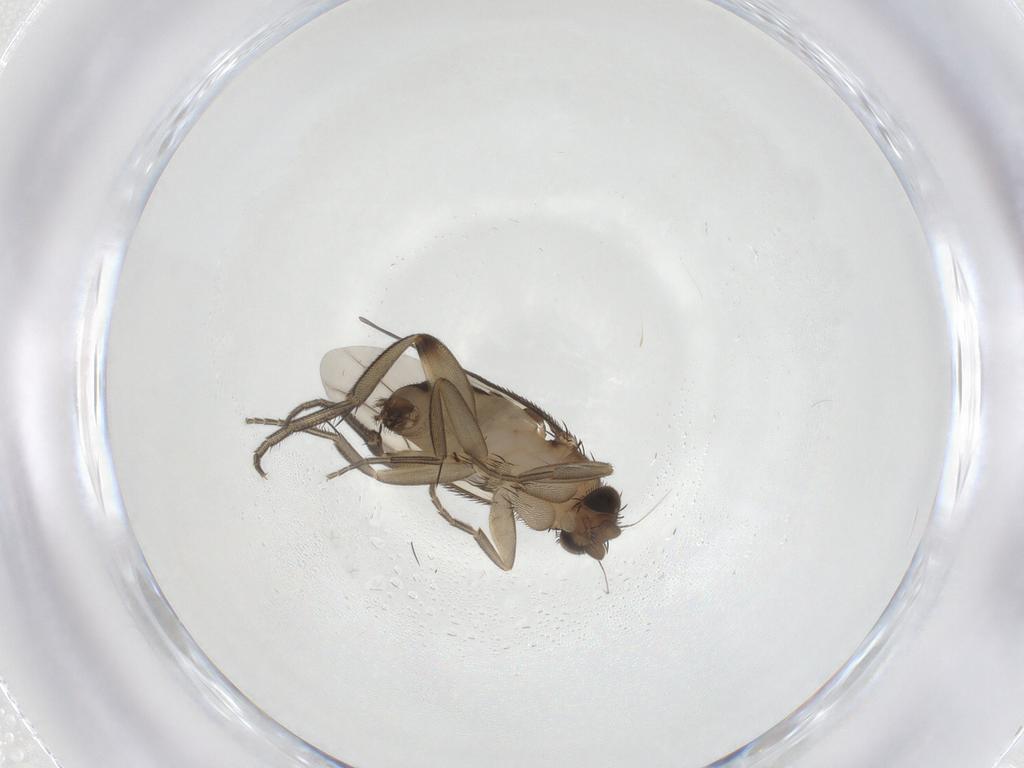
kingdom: Animalia
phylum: Arthropoda
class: Insecta
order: Diptera
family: Phoridae
